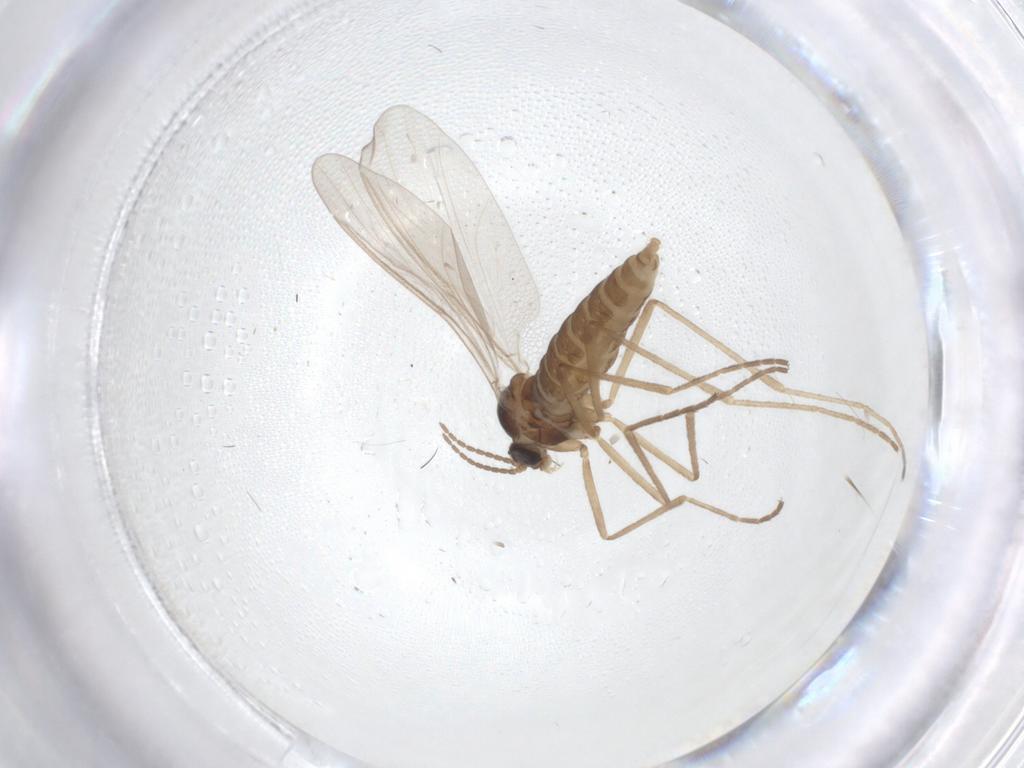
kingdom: Animalia
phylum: Arthropoda
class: Insecta
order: Diptera
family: Cecidomyiidae
